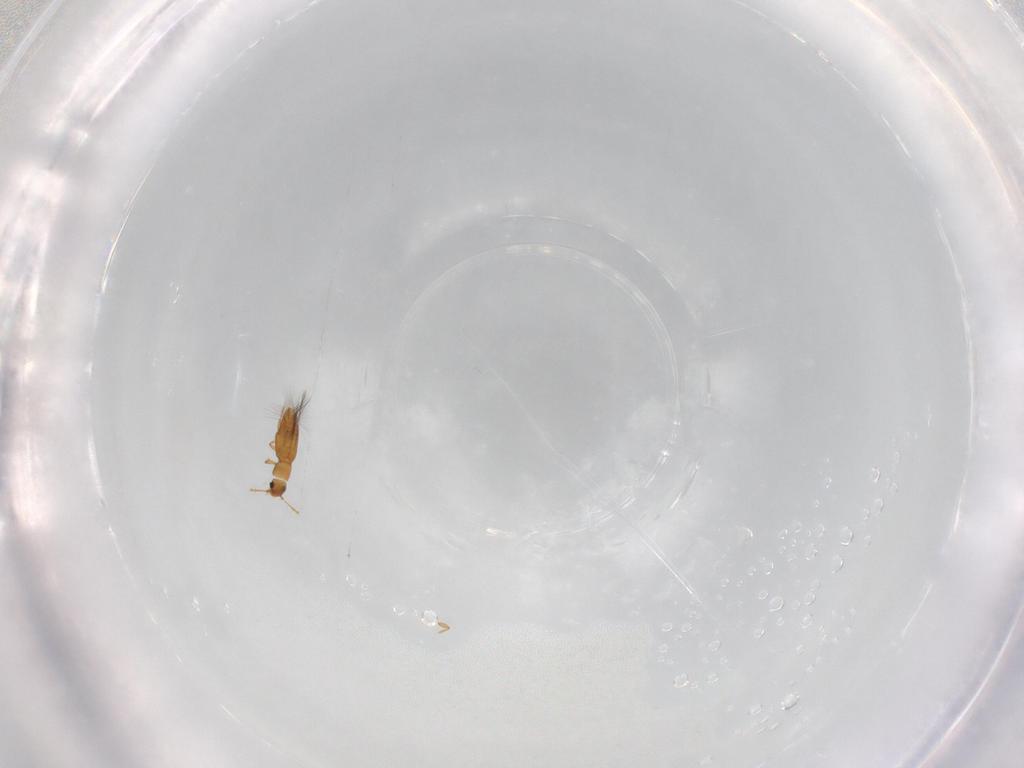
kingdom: Animalia
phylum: Arthropoda
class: Insecta
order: Coleoptera
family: Ptiliidae
